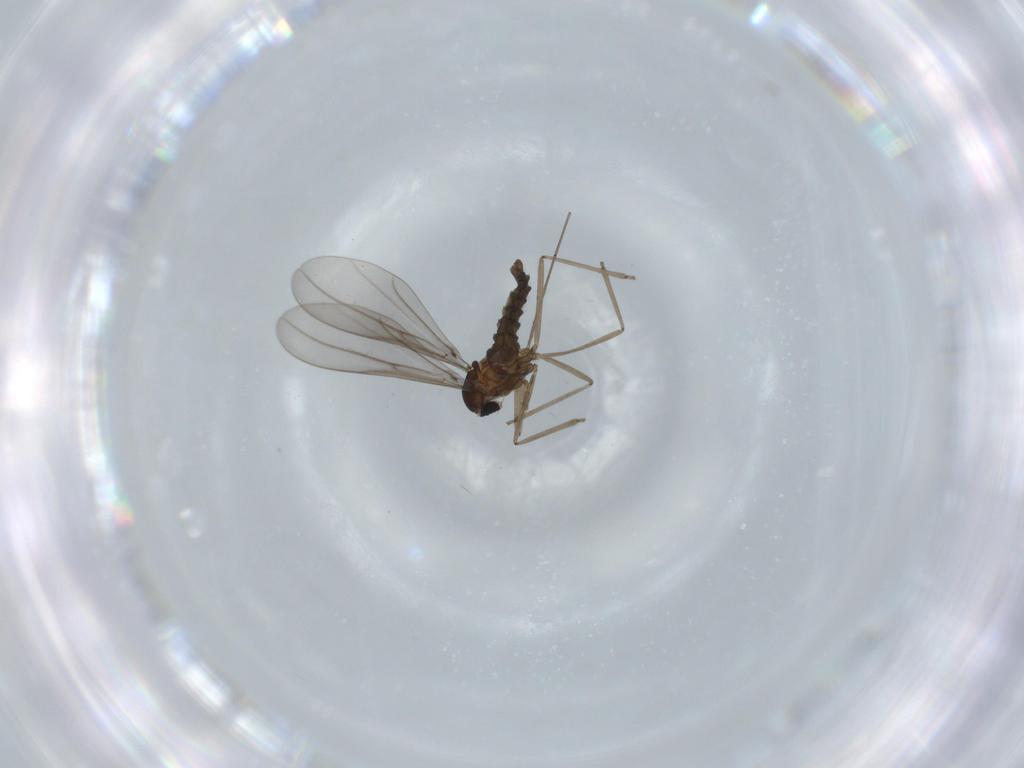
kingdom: Animalia
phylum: Arthropoda
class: Insecta
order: Diptera
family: Cecidomyiidae
